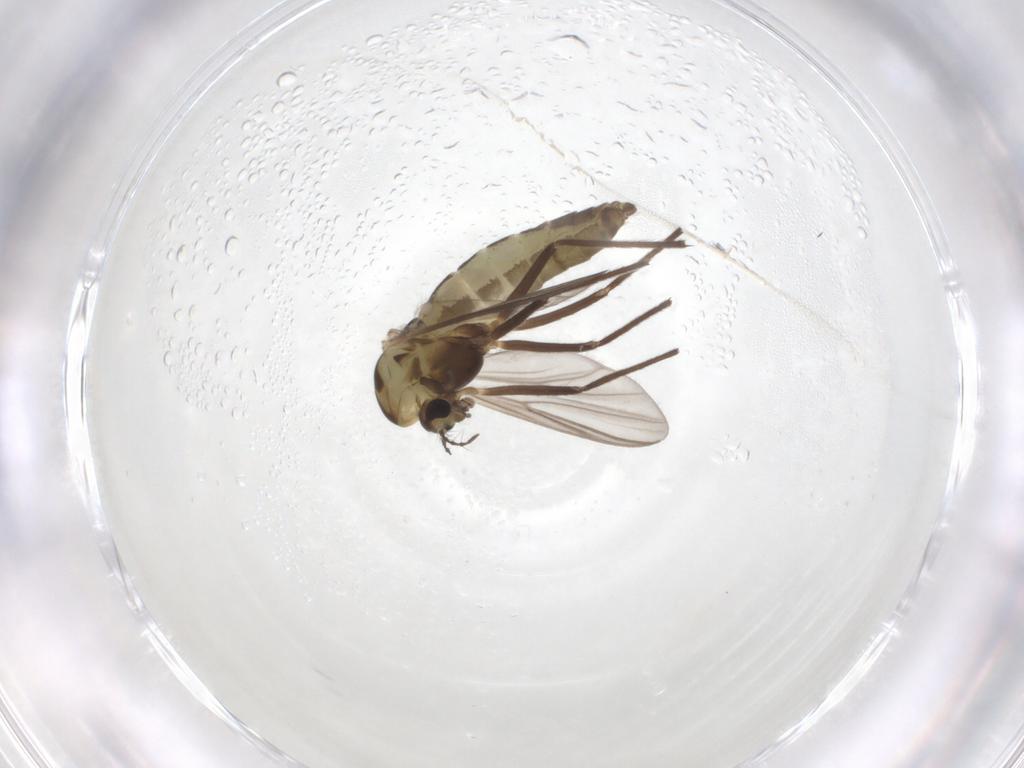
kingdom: Animalia
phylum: Arthropoda
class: Insecta
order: Diptera
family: Chironomidae
